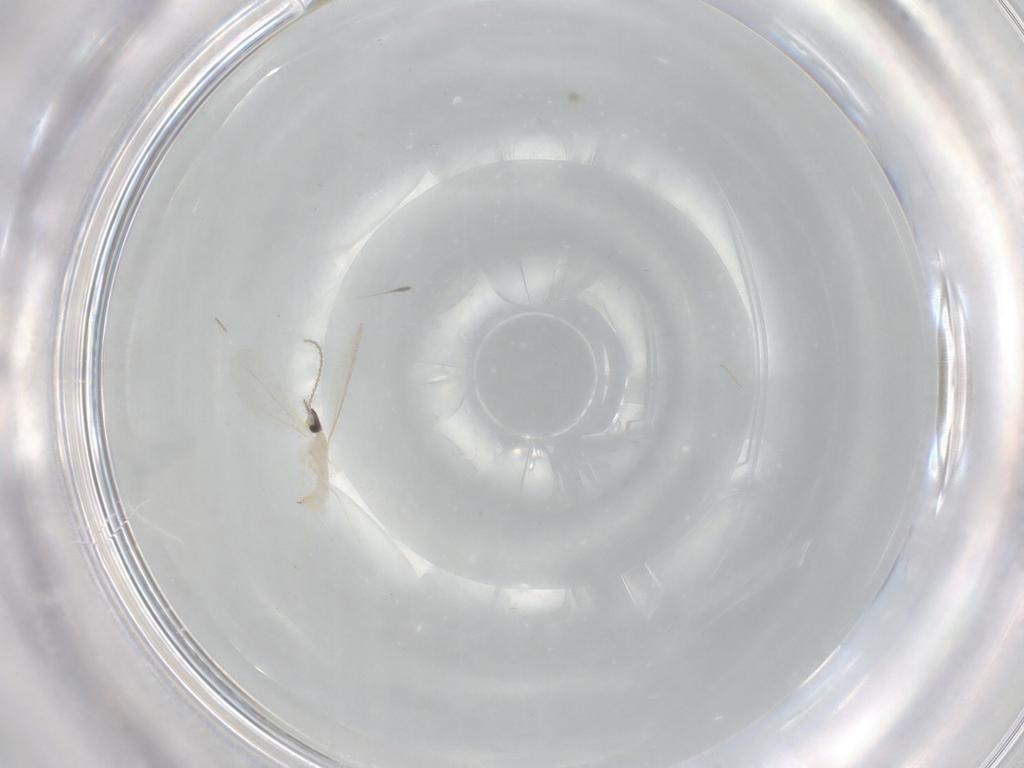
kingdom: Animalia
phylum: Arthropoda
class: Insecta
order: Diptera
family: Cecidomyiidae
